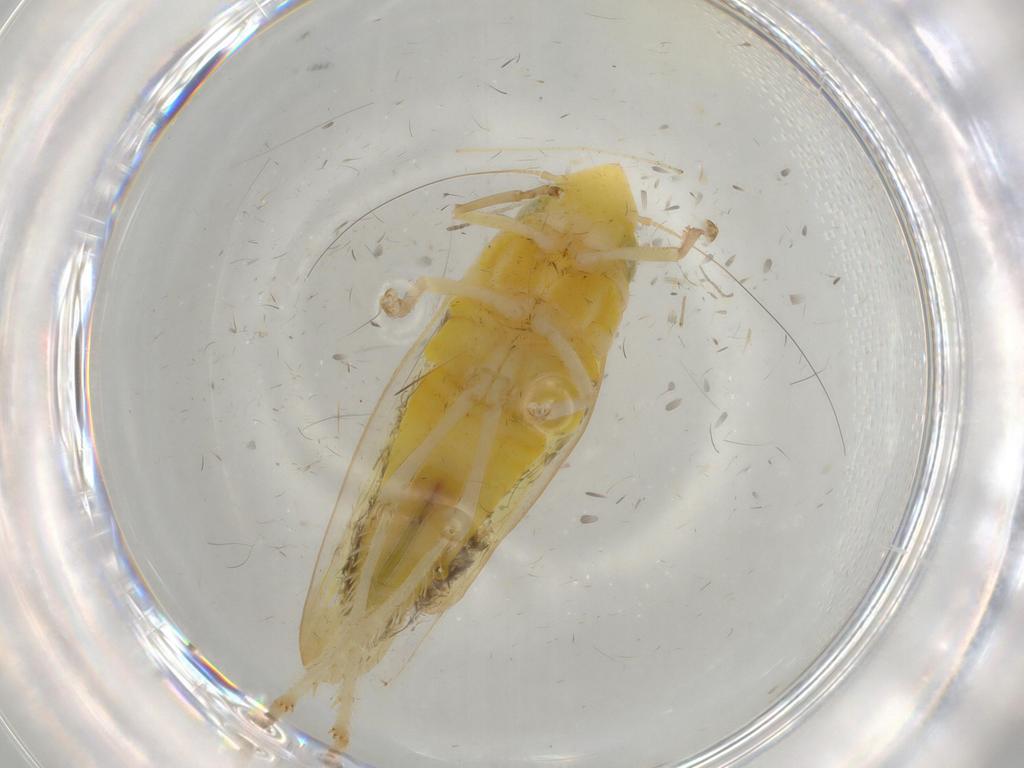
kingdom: Animalia
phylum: Arthropoda
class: Insecta
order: Hemiptera
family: Cicadellidae
